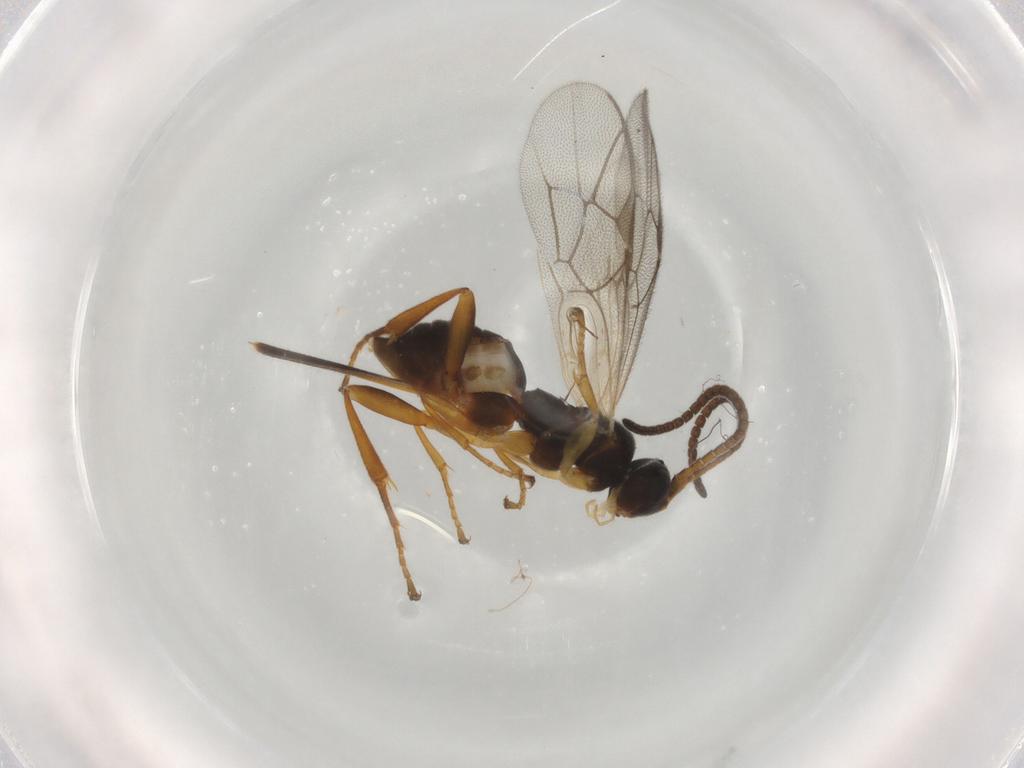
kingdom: Animalia
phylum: Arthropoda
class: Insecta
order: Hymenoptera
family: Ichneumonidae
